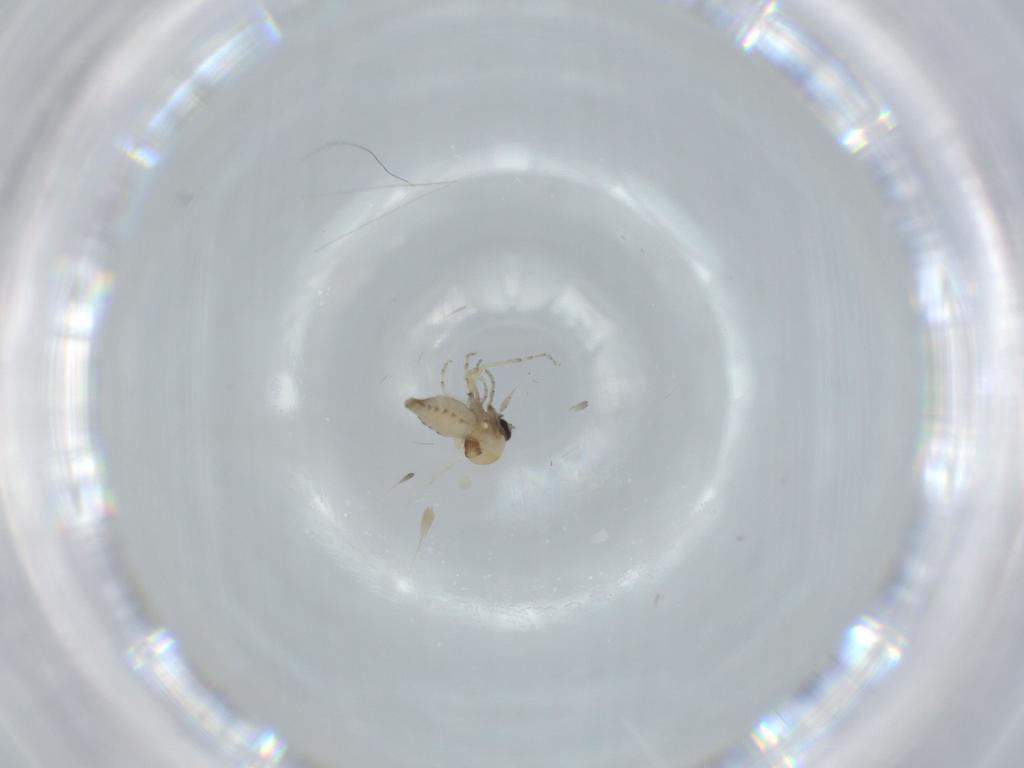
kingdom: Animalia
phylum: Arthropoda
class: Insecta
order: Diptera
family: Ceratopogonidae
